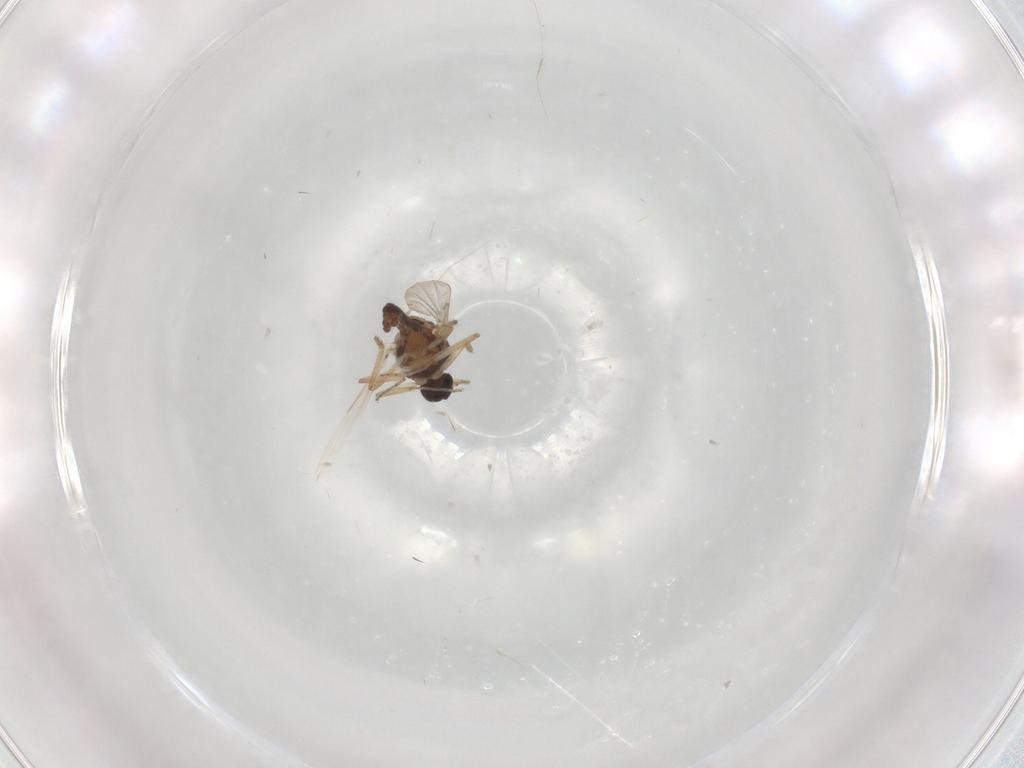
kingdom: Animalia
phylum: Arthropoda
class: Insecta
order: Diptera
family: Ceratopogonidae
